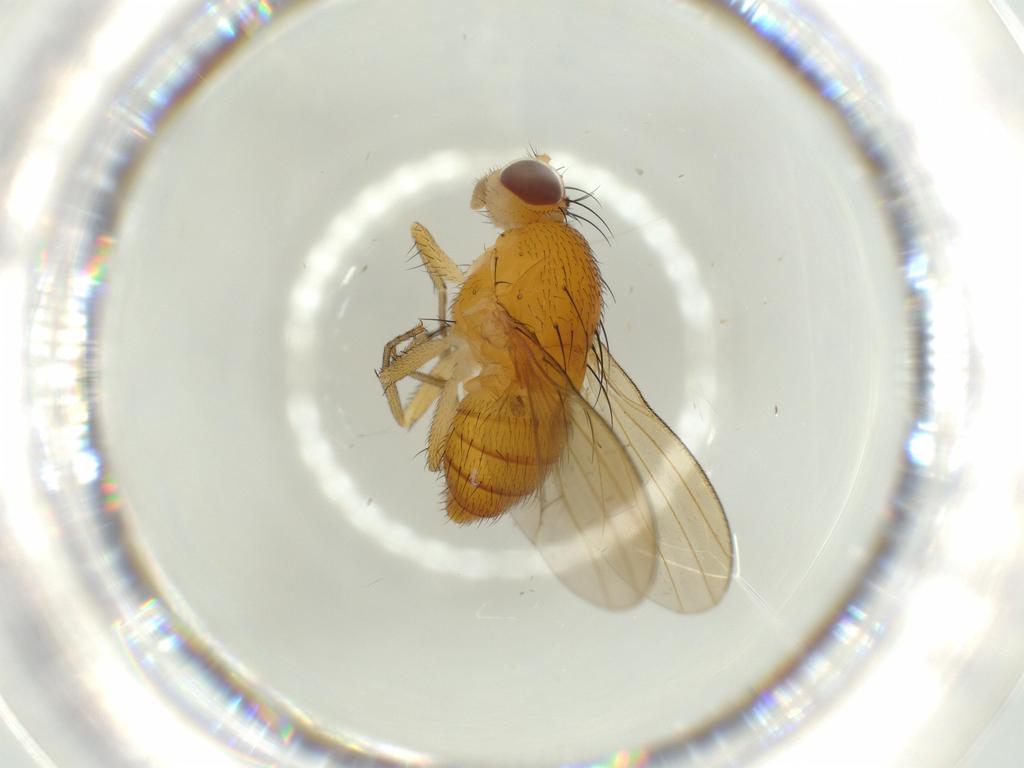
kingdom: Animalia
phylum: Arthropoda
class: Insecta
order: Diptera
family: Lauxaniidae
